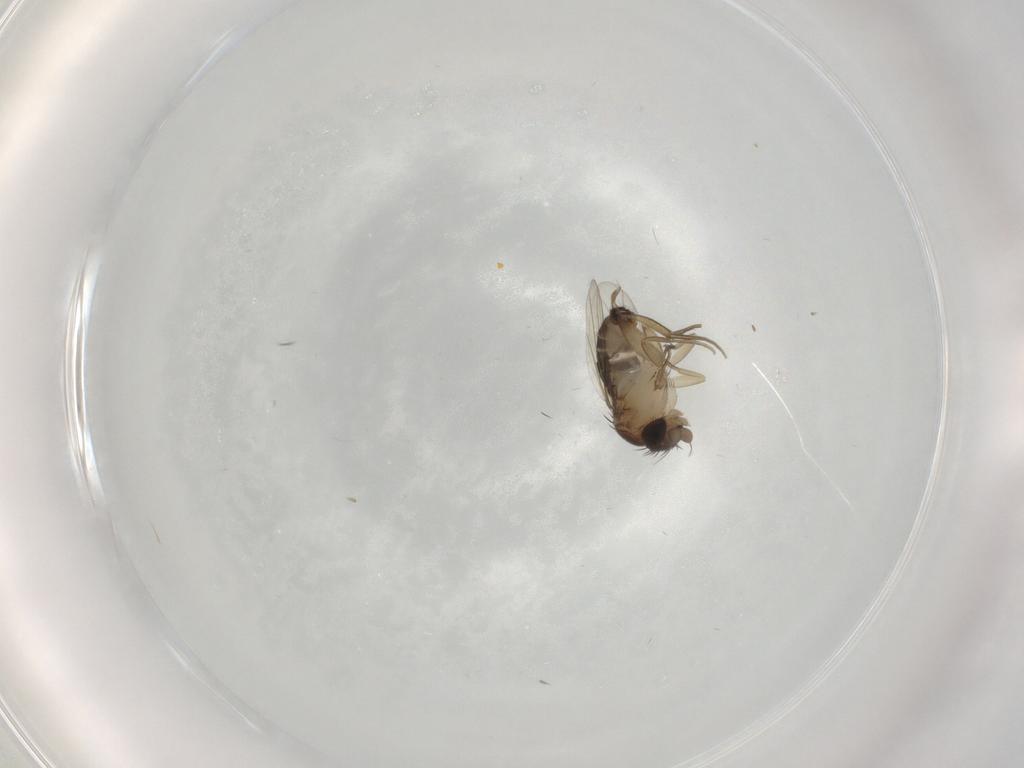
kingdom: Animalia
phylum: Arthropoda
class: Insecta
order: Diptera
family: Phoridae
